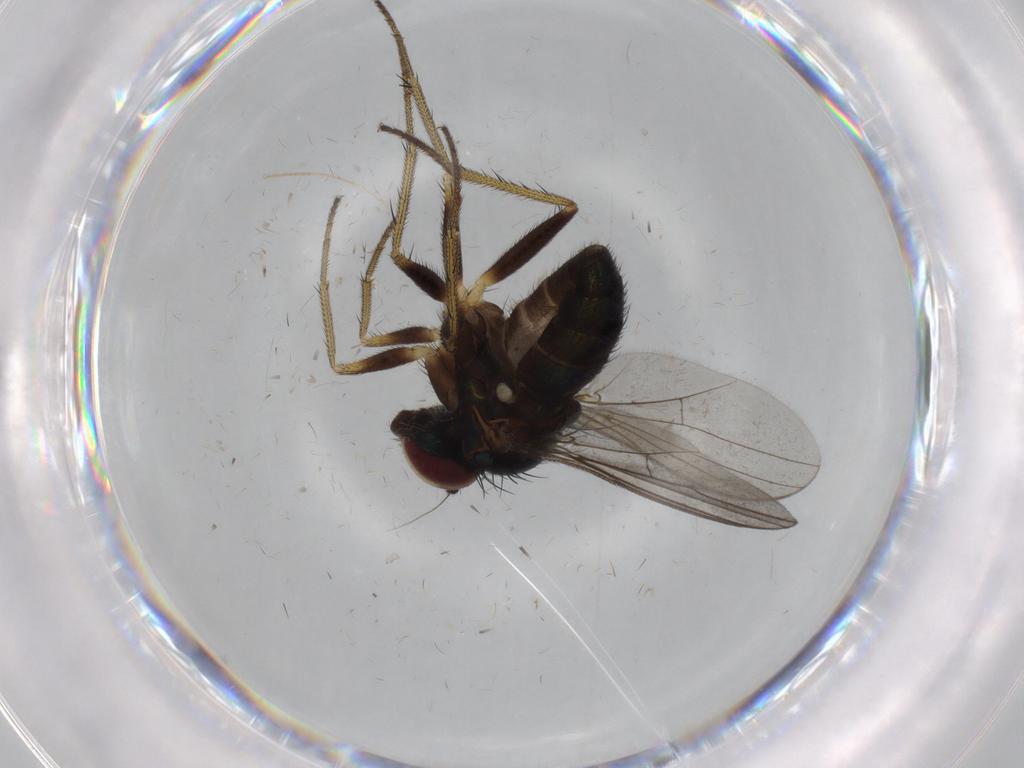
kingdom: Animalia
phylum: Arthropoda
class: Insecta
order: Diptera
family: Dolichopodidae
